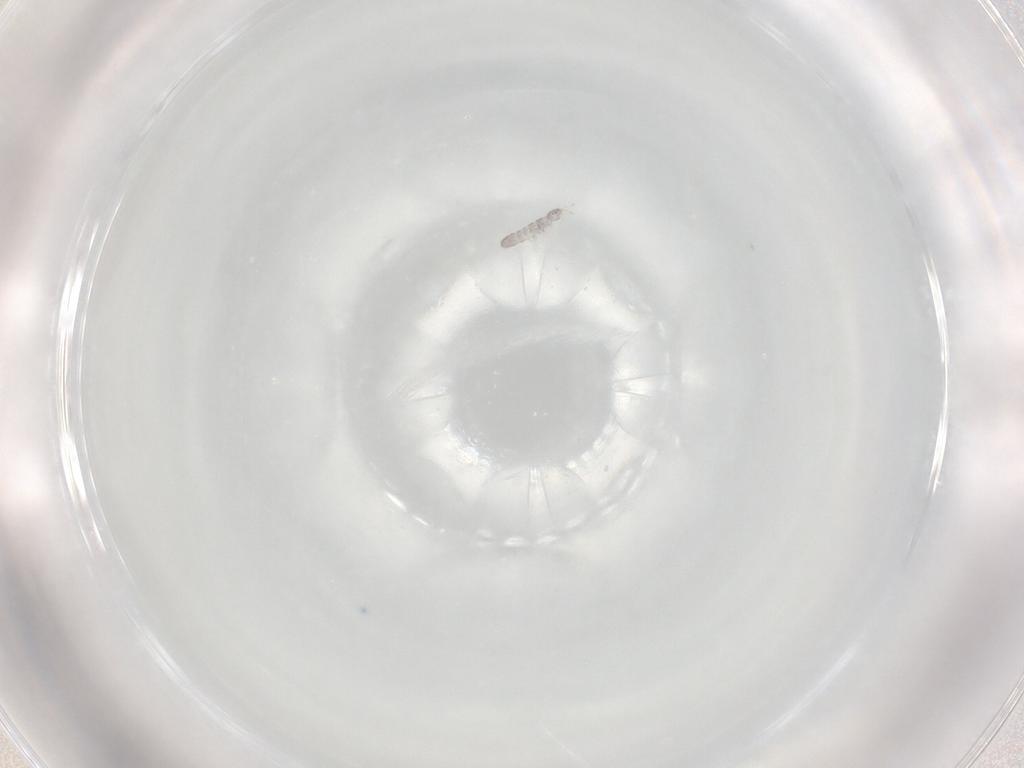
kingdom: Animalia
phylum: Arthropoda
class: Collembola
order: Entomobryomorpha
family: Isotomidae
